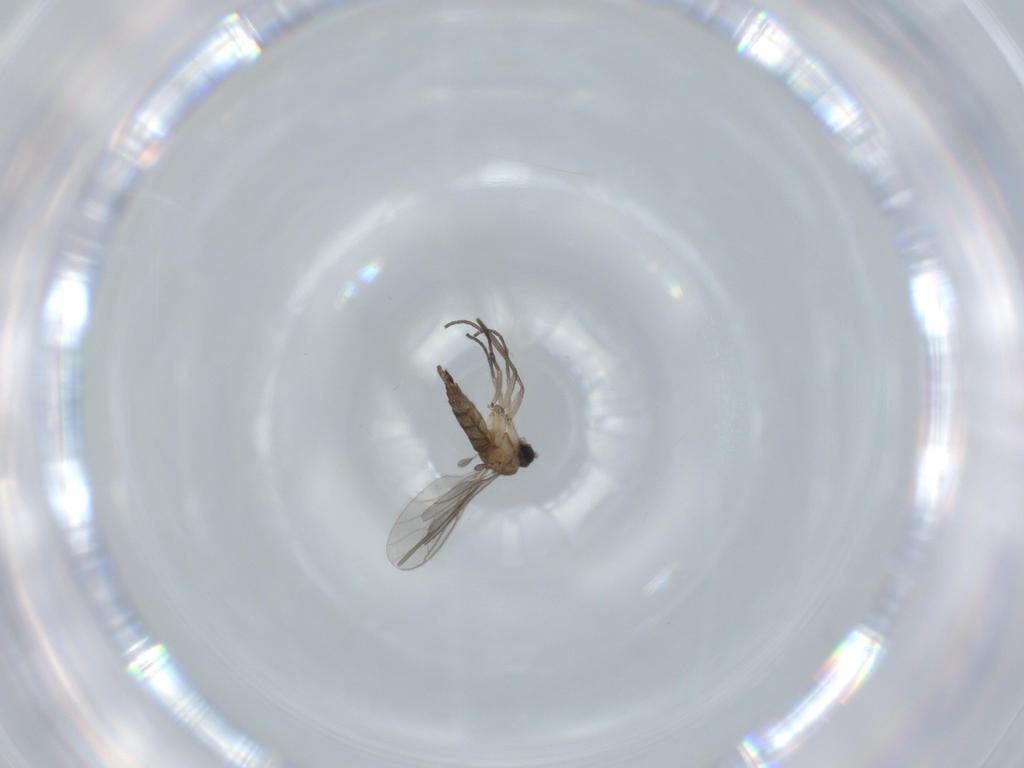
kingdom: Animalia
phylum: Arthropoda
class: Insecta
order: Diptera
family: Sciaridae
